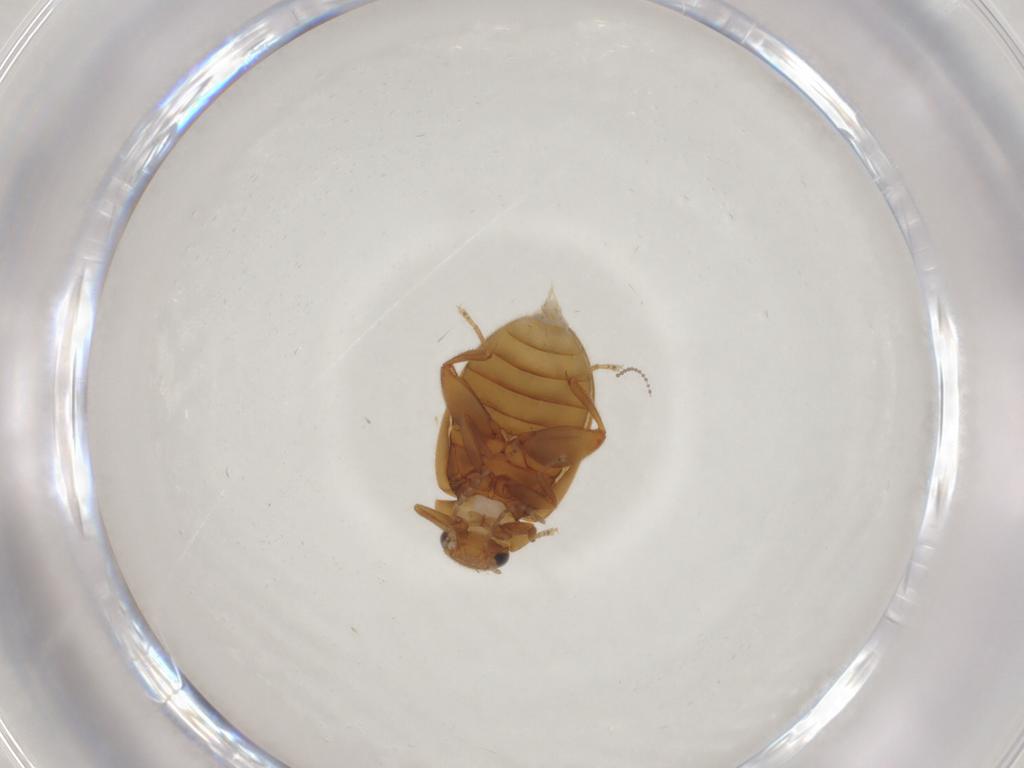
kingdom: Animalia
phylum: Arthropoda
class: Insecta
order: Coleoptera
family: Scirtidae
